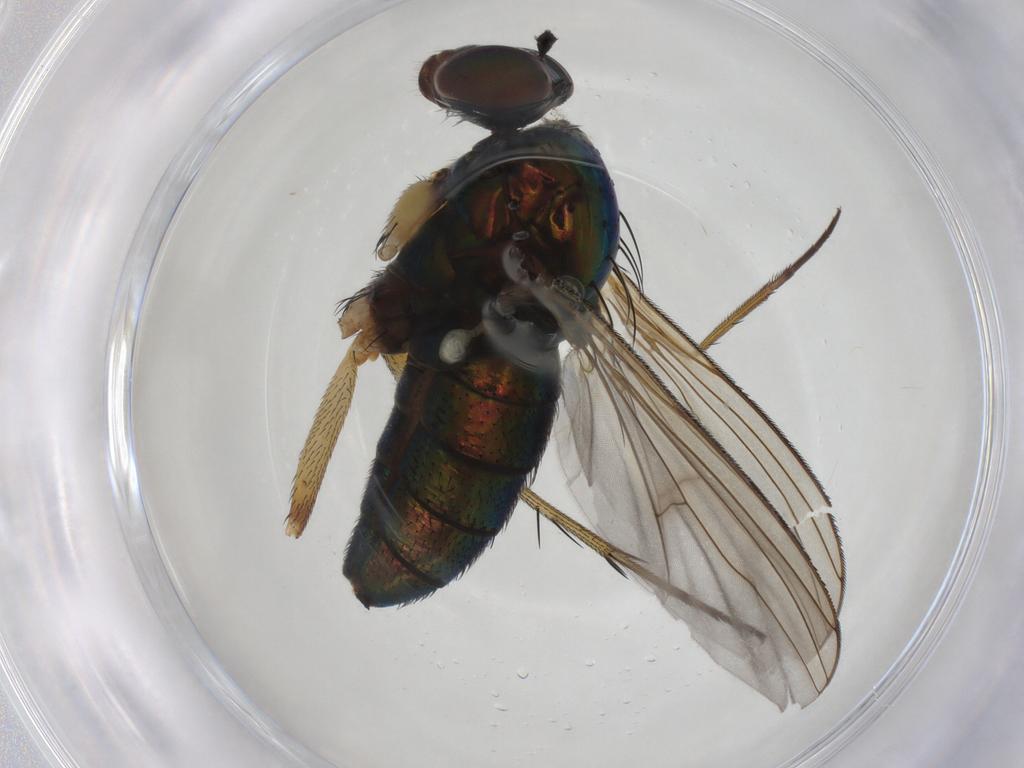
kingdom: Animalia
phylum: Arthropoda
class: Insecta
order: Diptera
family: Dolichopodidae
